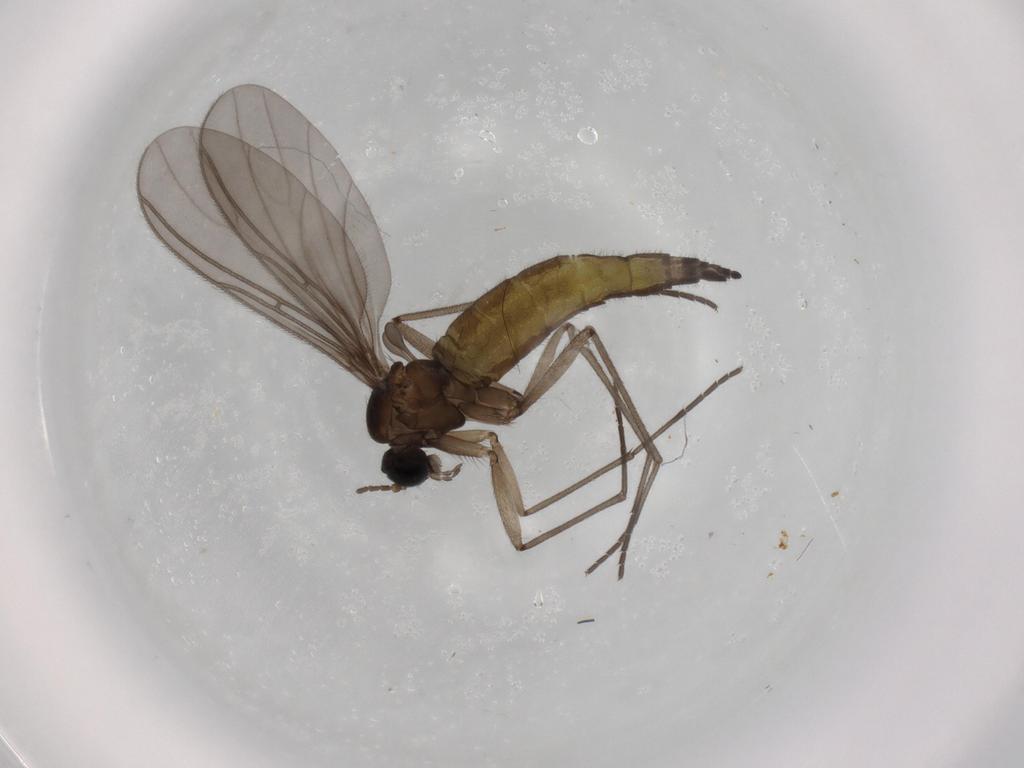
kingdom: Animalia
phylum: Arthropoda
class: Insecta
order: Diptera
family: Sciaridae
